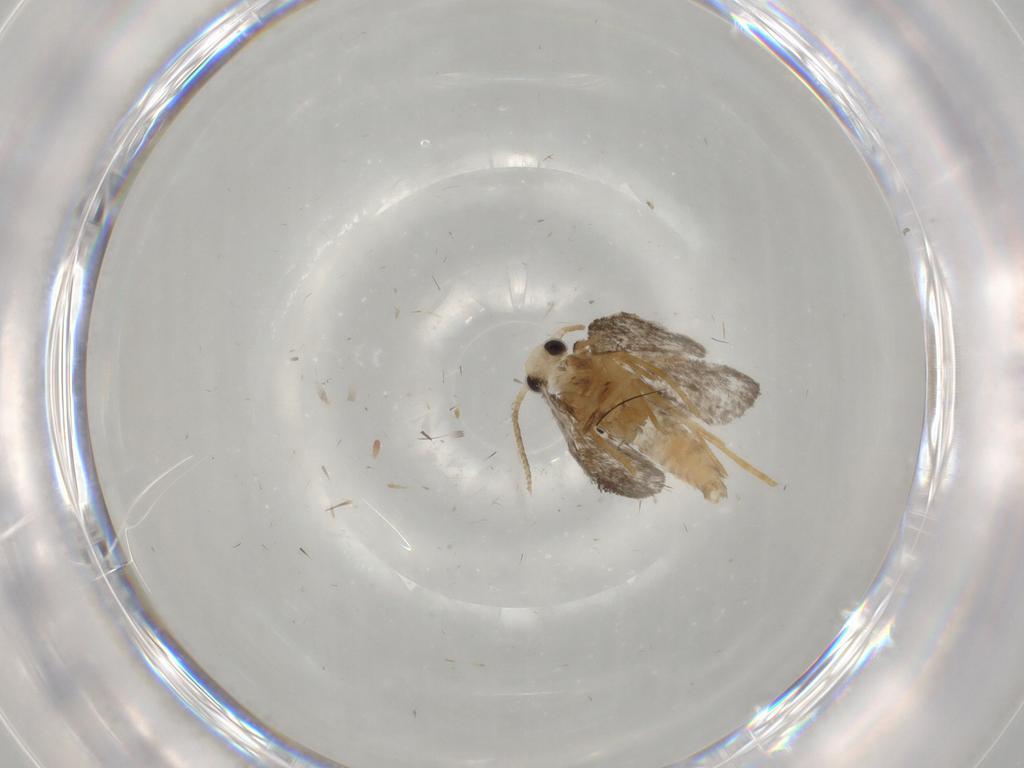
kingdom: Animalia
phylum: Arthropoda
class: Insecta
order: Lepidoptera
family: Psychidae
